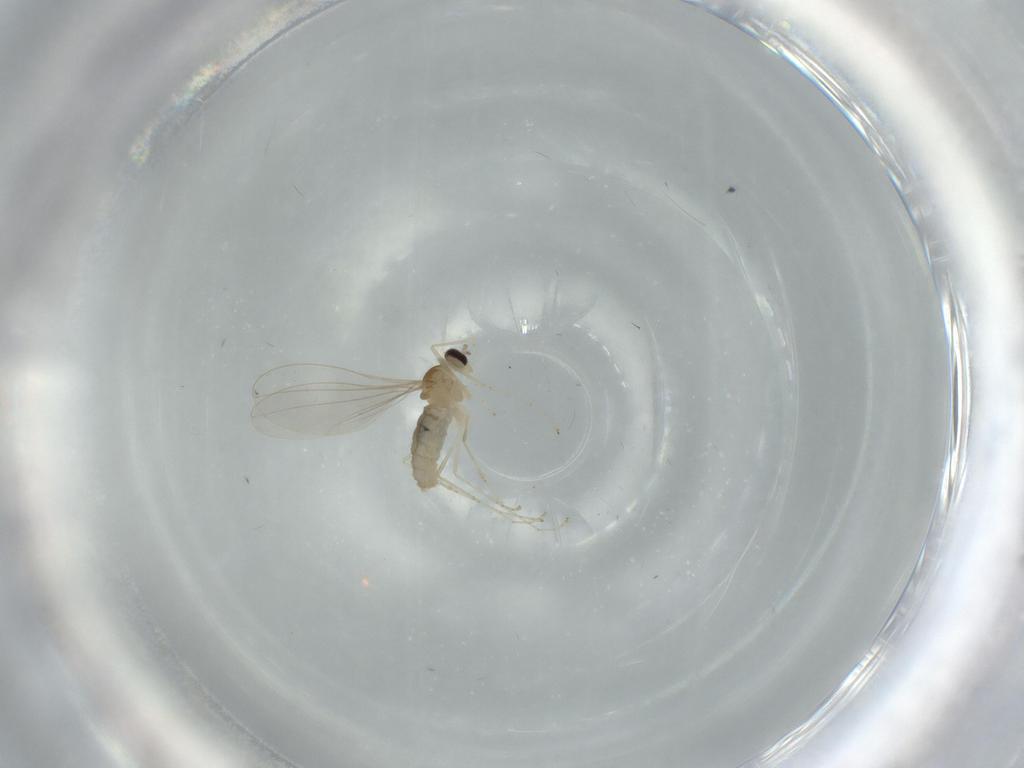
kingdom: Animalia
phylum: Arthropoda
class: Insecta
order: Diptera
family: Cecidomyiidae
